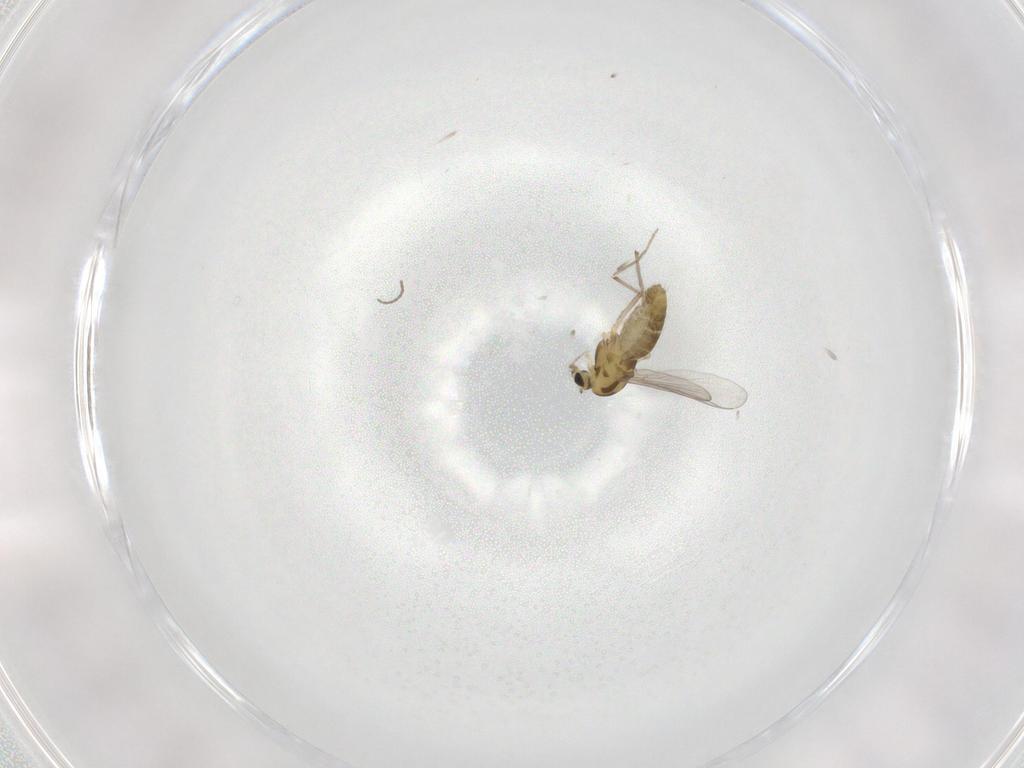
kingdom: Animalia
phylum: Arthropoda
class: Insecta
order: Diptera
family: Chironomidae
